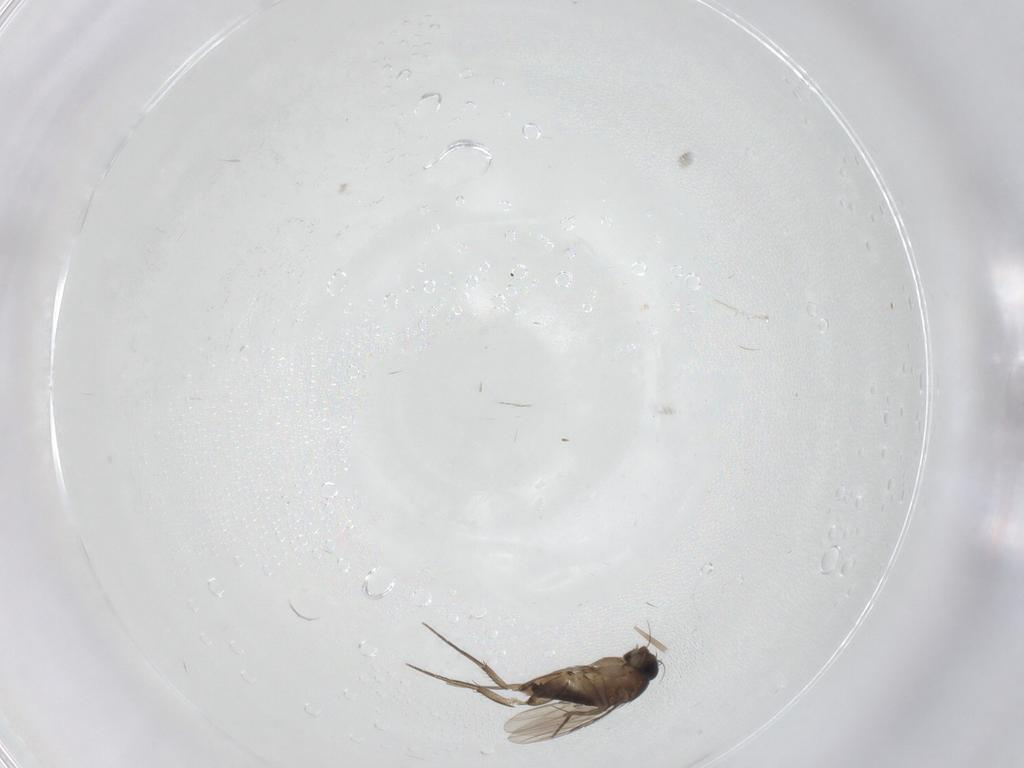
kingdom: Animalia
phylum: Arthropoda
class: Insecta
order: Diptera
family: Phoridae
